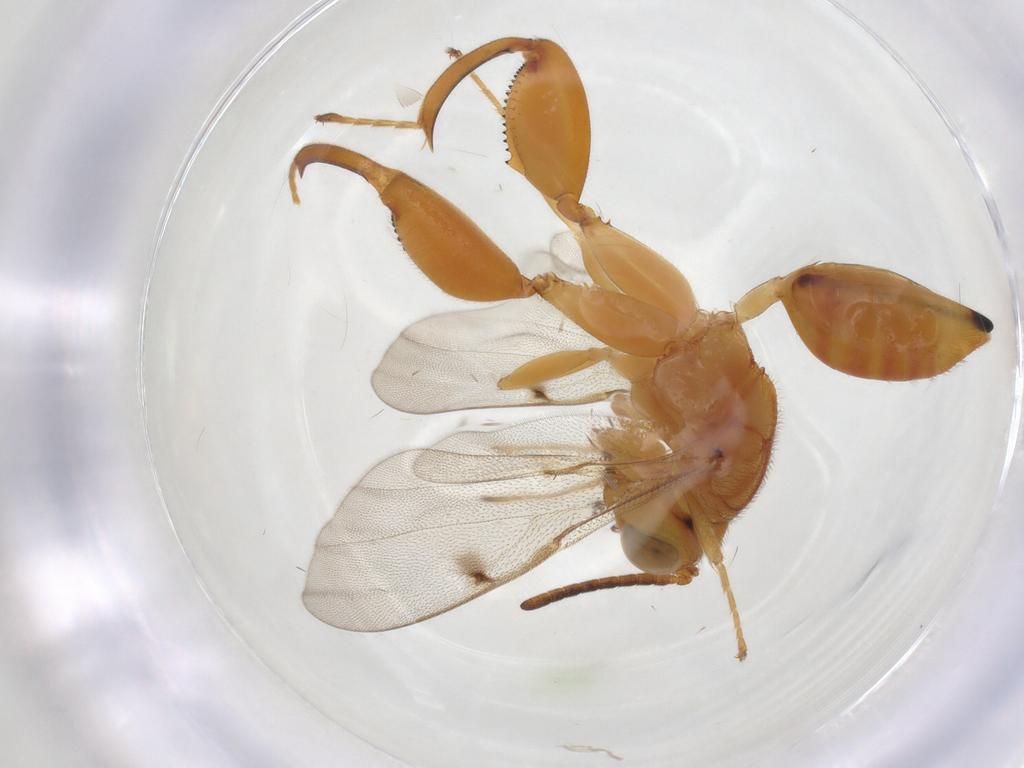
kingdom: Animalia
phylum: Arthropoda
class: Insecta
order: Hymenoptera
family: Chalcididae
